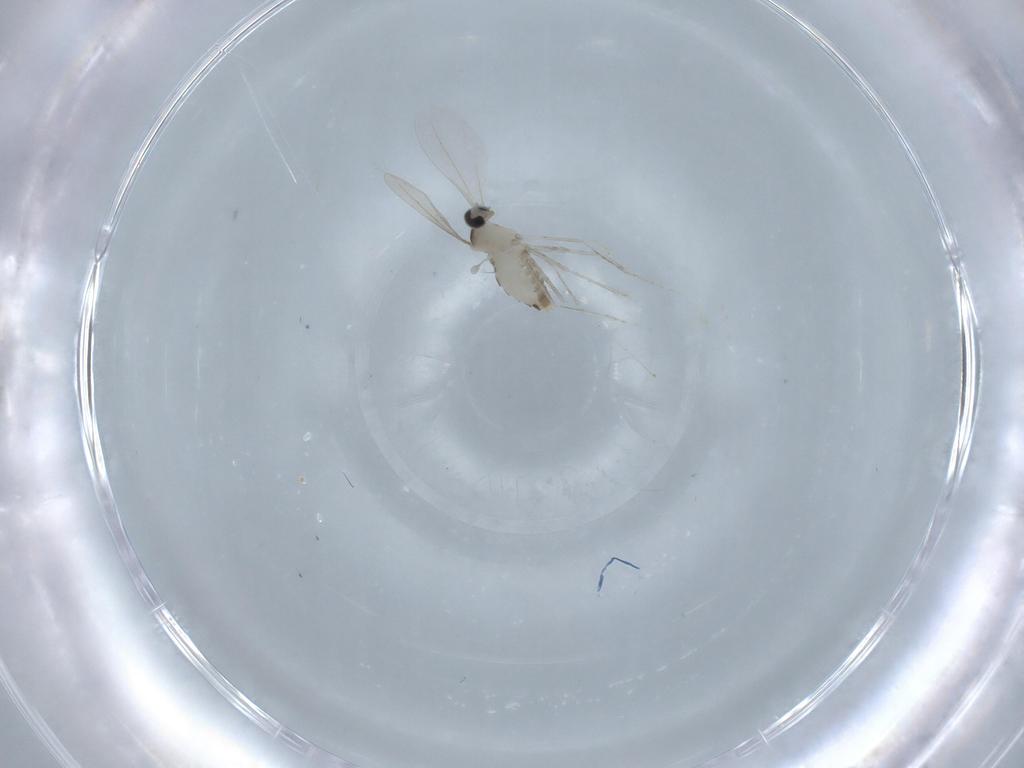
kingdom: Animalia
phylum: Arthropoda
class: Insecta
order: Diptera
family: Cecidomyiidae
